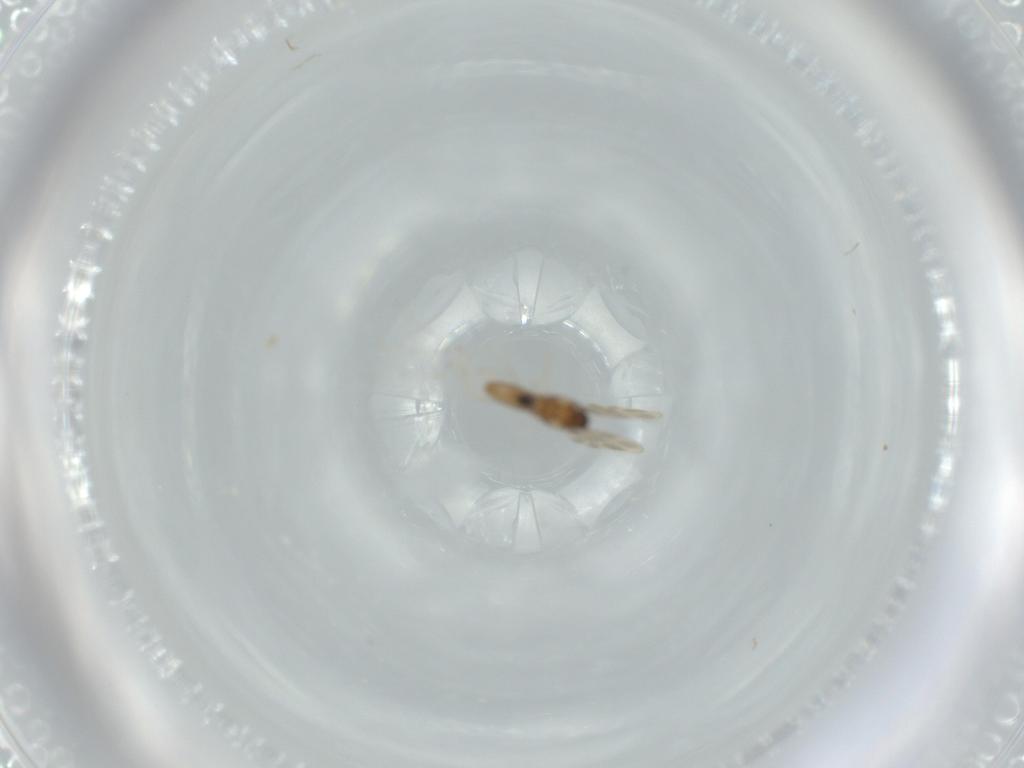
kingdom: Animalia
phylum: Arthropoda
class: Insecta
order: Diptera
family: Cecidomyiidae
